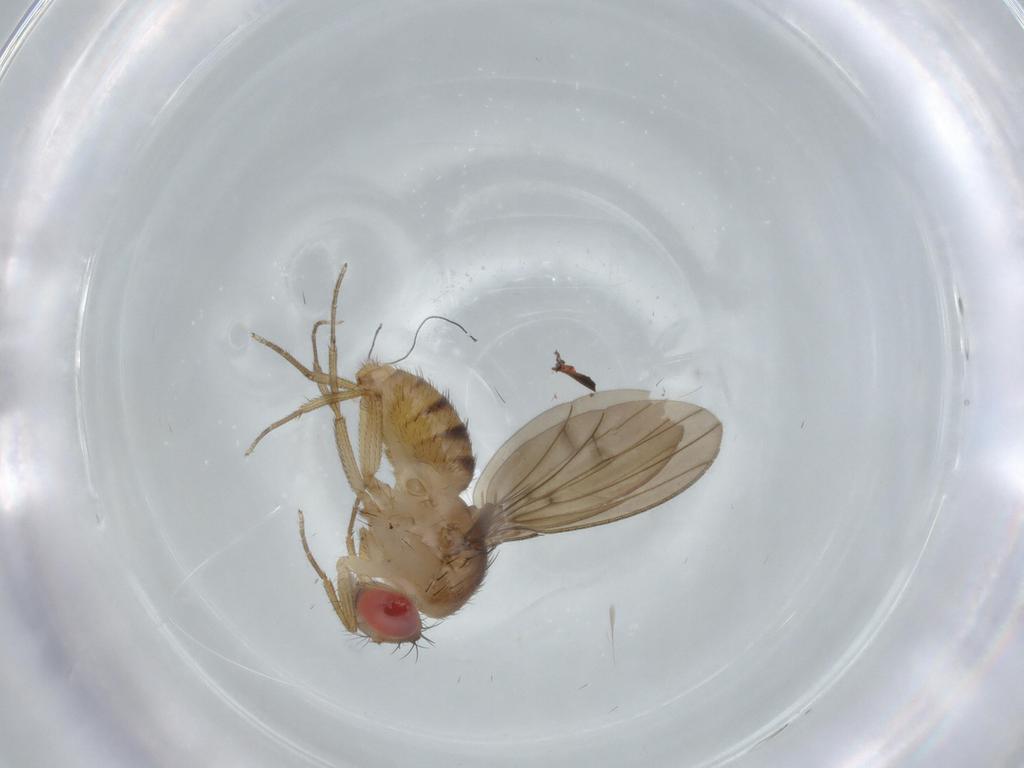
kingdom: Animalia
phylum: Arthropoda
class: Insecta
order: Diptera
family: Drosophilidae
